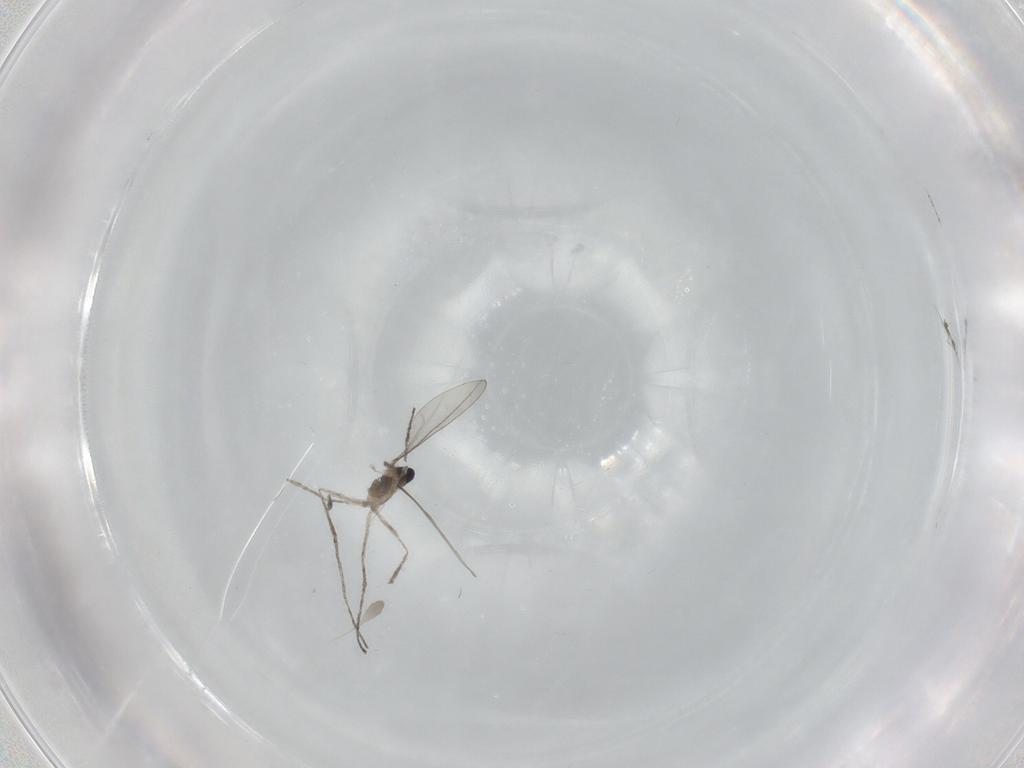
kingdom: Animalia
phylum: Arthropoda
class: Insecta
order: Diptera
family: Cecidomyiidae
